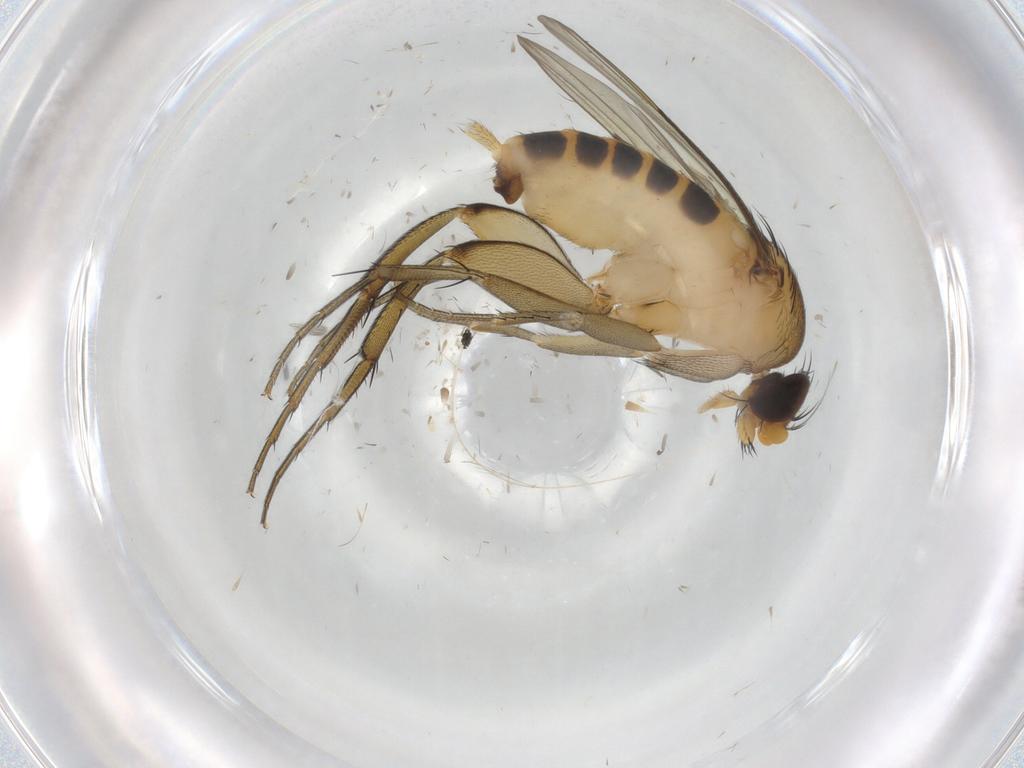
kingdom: Animalia
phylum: Arthropoda
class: Insecta
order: Diptera
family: Phoridae
